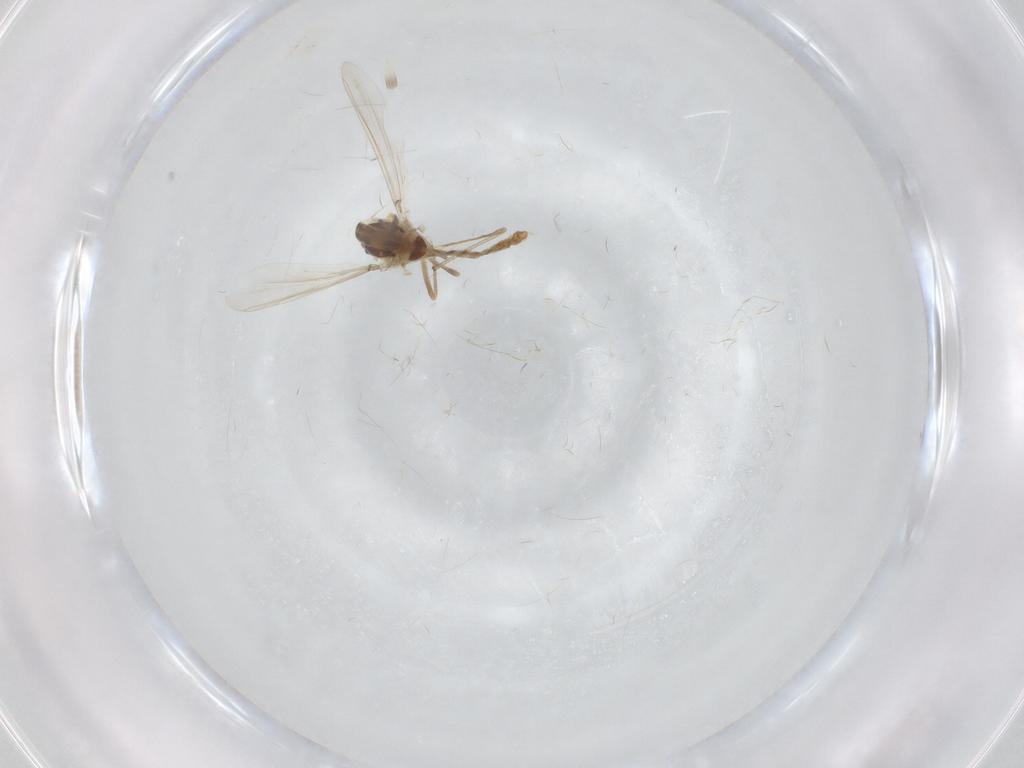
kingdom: Animalia
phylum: Arthropoda
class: Insecta
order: Diptera
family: Chironomidae
